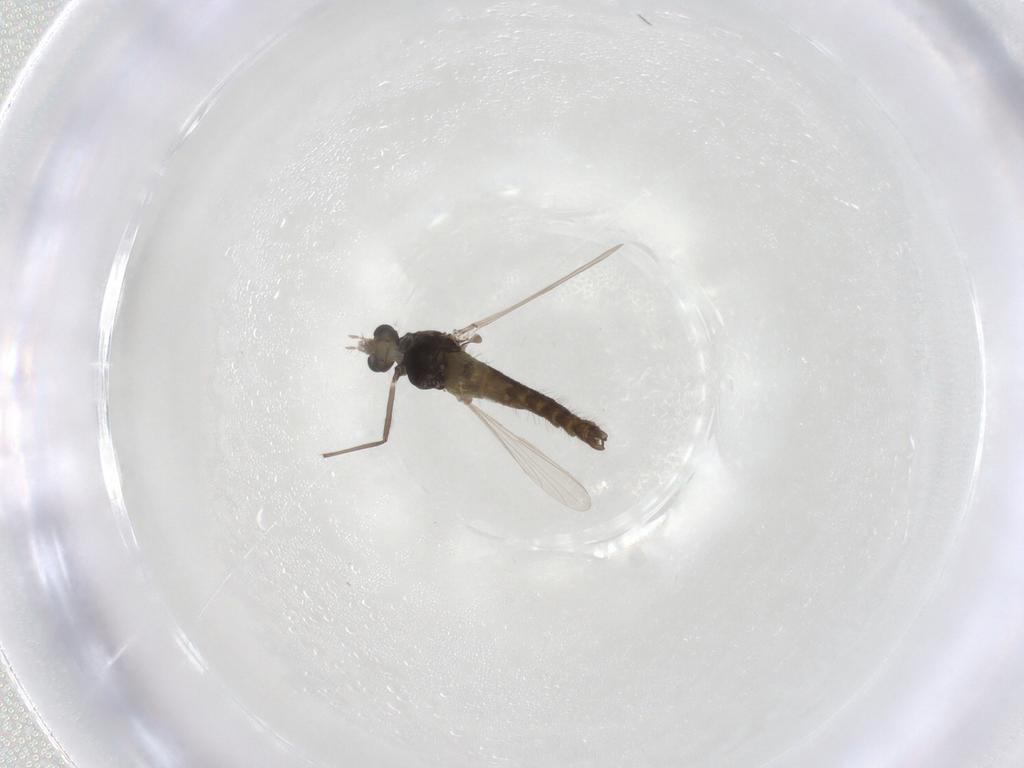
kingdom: Animalia
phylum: Arthropoda
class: Insecta
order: Diptera
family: Chironomidae
